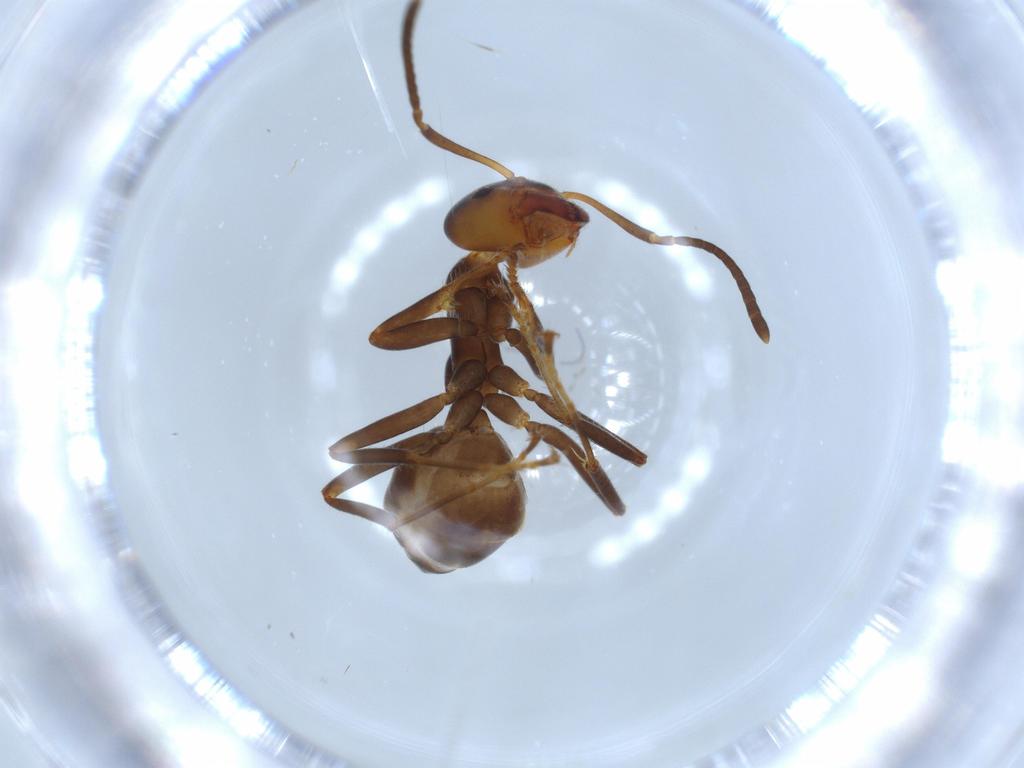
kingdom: Animalia
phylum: Arthropoda
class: Insecta
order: Hymenoptera
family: Formicidae
